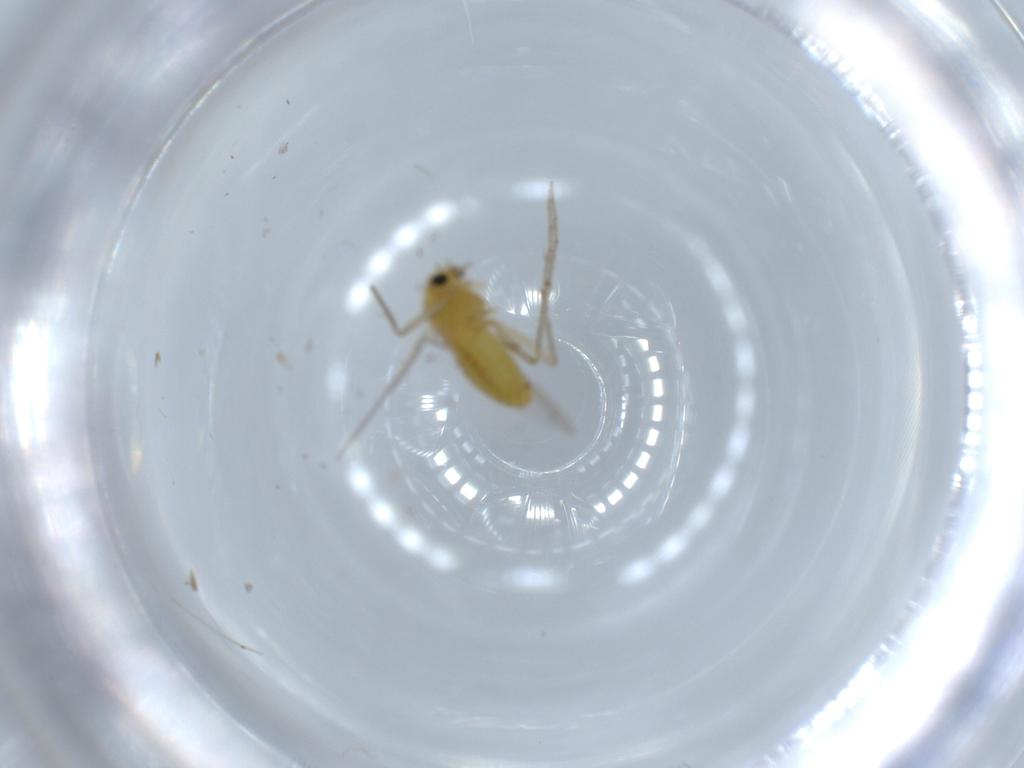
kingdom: Animalia
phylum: Arthropoda
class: Insecta
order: Diptera
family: Chironomidae
